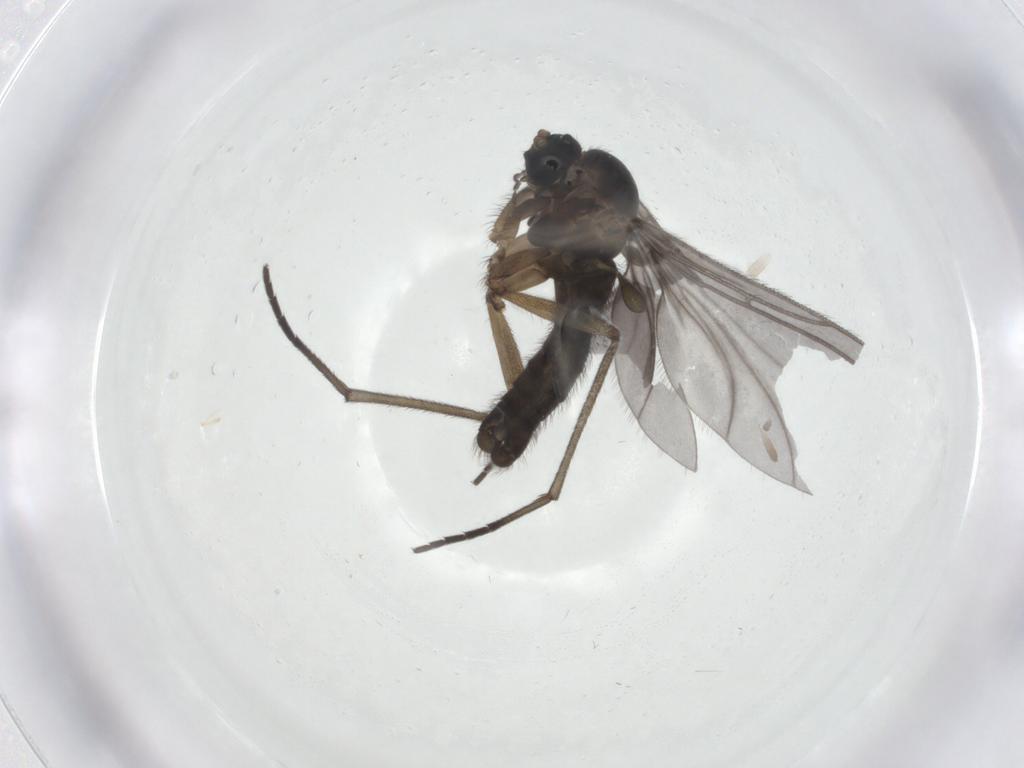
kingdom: Animalia
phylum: Arthropoda
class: Insecta
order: Diptera
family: Sciaridae
